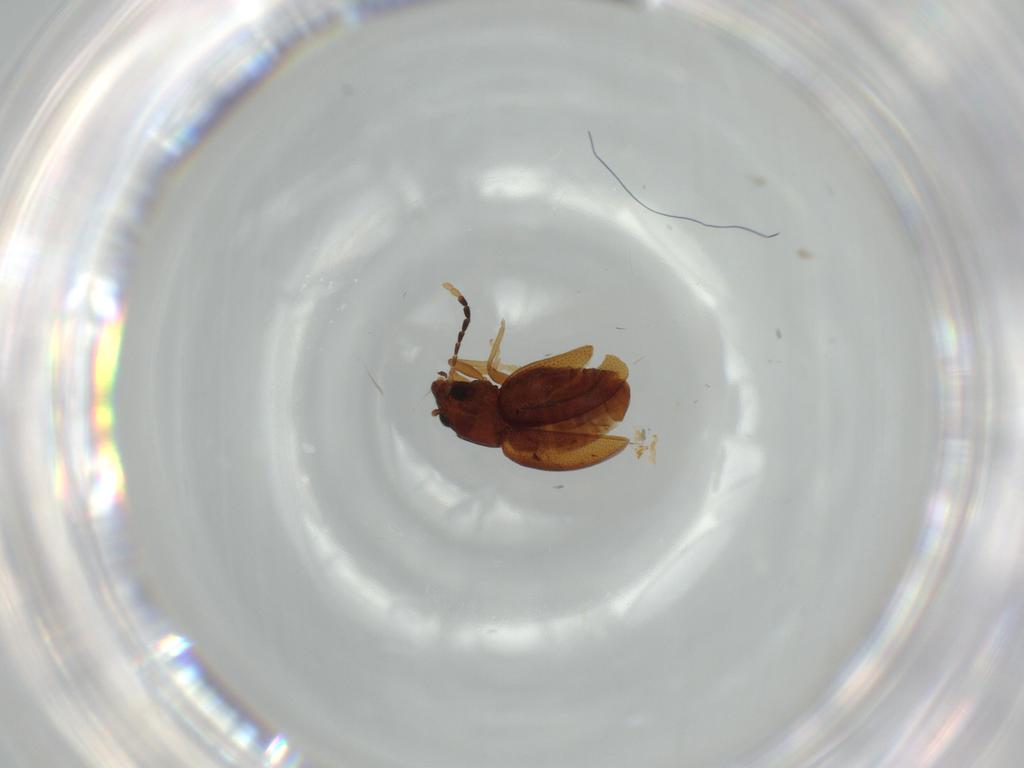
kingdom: Animalia
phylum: Arthropoda
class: Insecta
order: Coleoptera
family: Chrysomelidae
